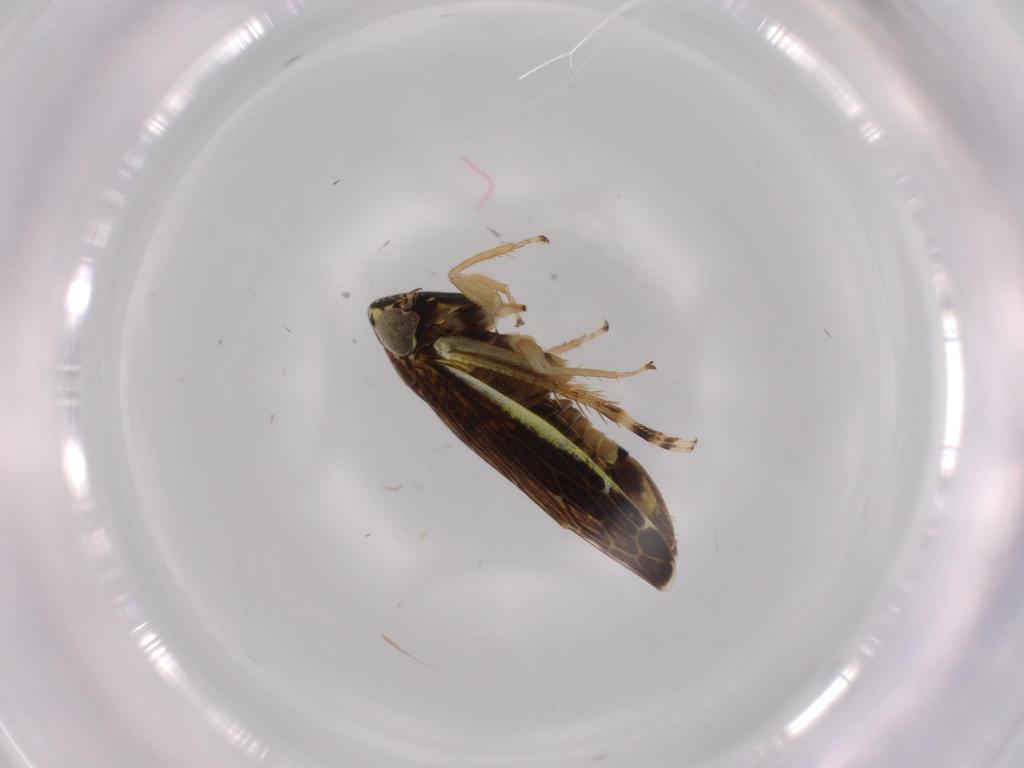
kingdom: Animalia
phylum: Arthropoda
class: Insecta
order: Hemiptera
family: Cicadellidae
